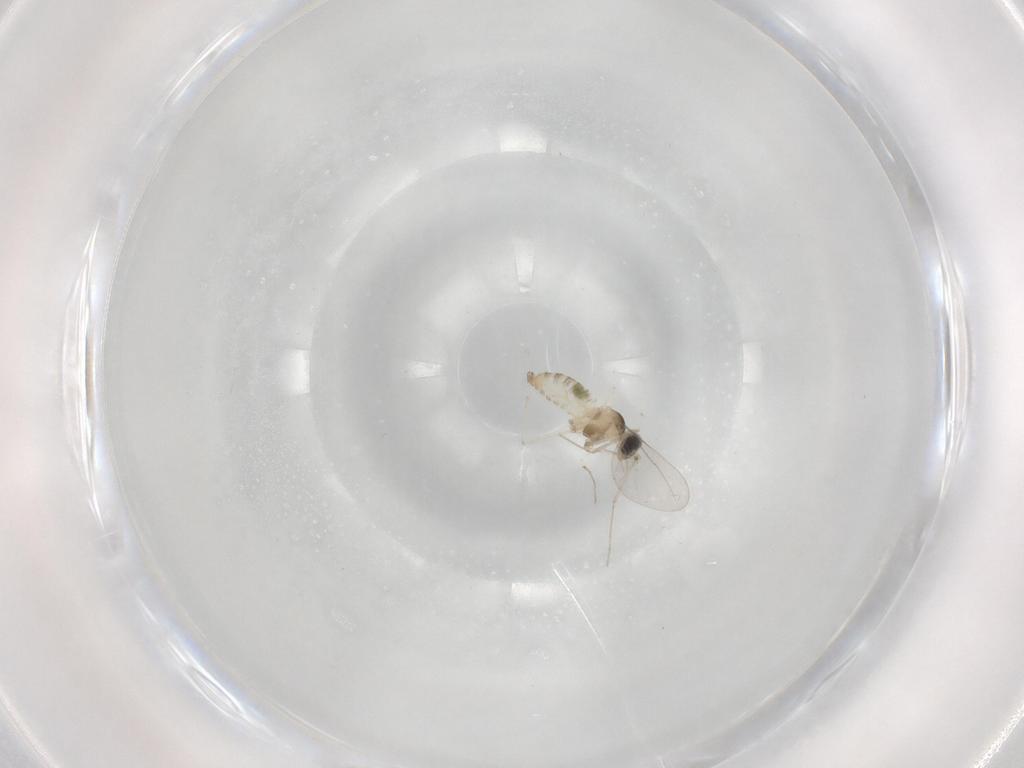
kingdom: Animalia
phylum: Arthropoda
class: Insecta
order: Diptera
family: Cecidomyiidae
